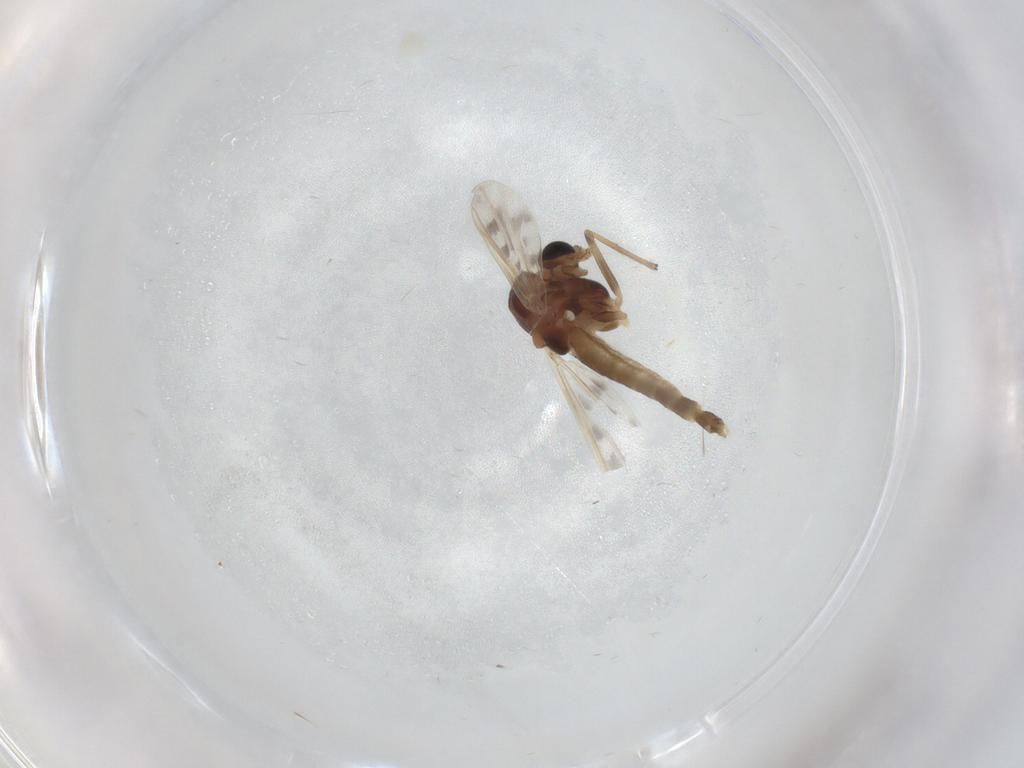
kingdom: Animalia
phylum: Arthropoda
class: Insecta
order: Diptera
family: Chironomidae
